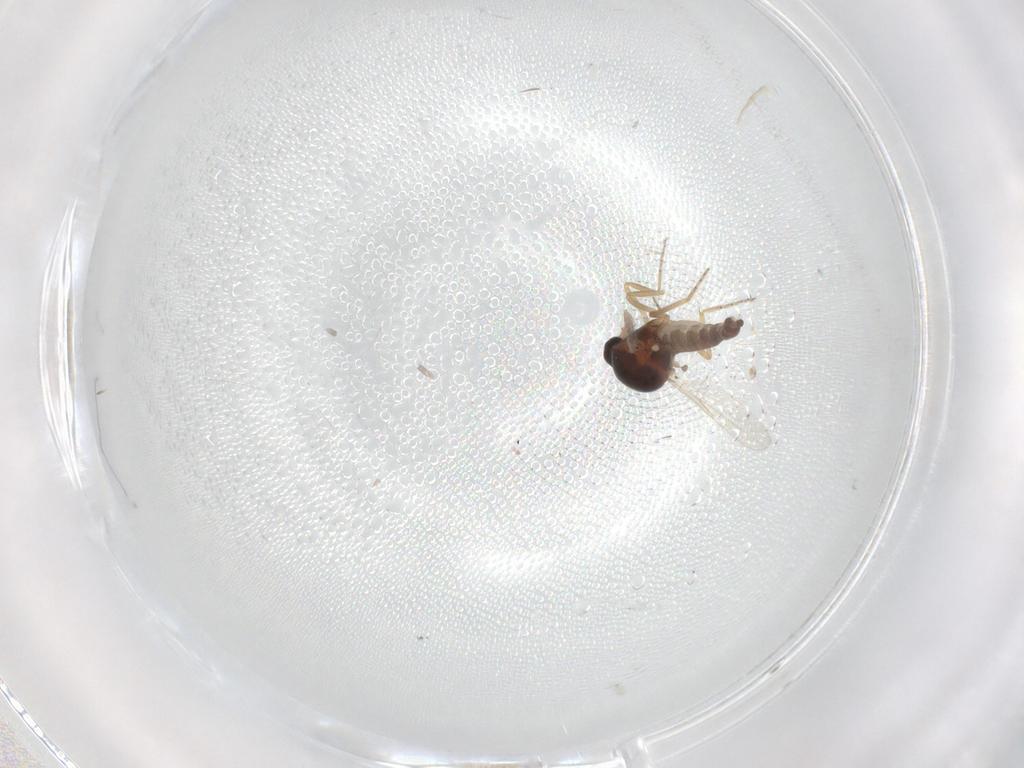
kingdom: Animalia
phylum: Arthropoda
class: Insecta
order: Diptera
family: Ceratopogonidae
